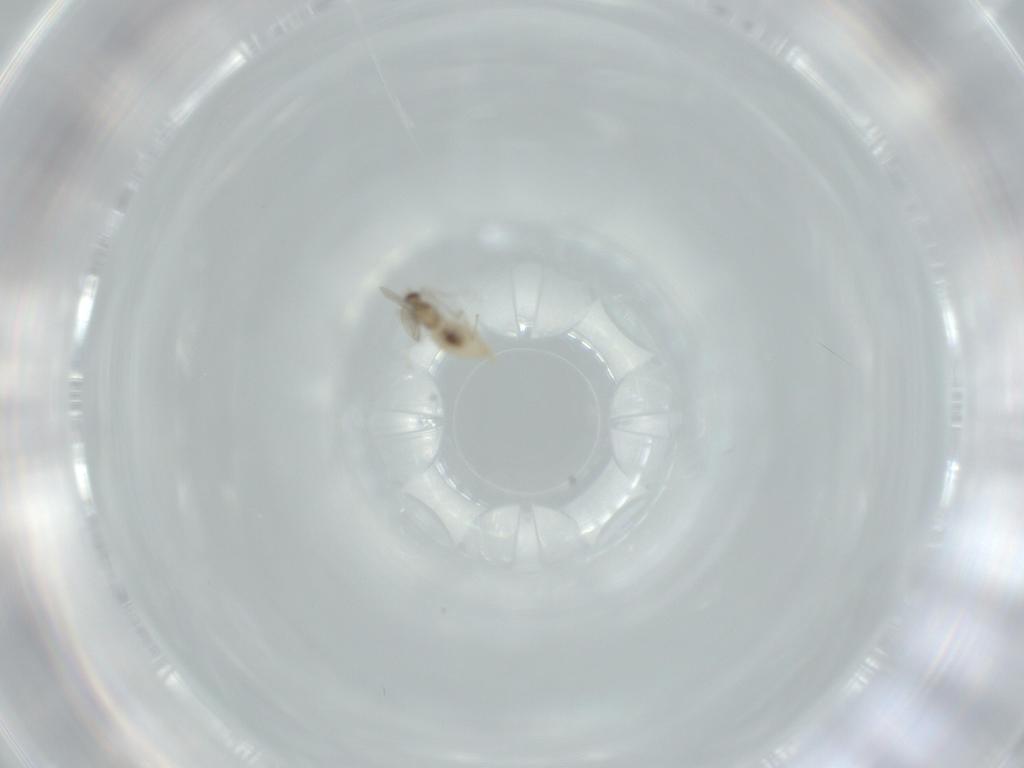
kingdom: Animalia
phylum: Arthropoda
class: Insecta
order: Diptera
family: Cecidomyiidae
